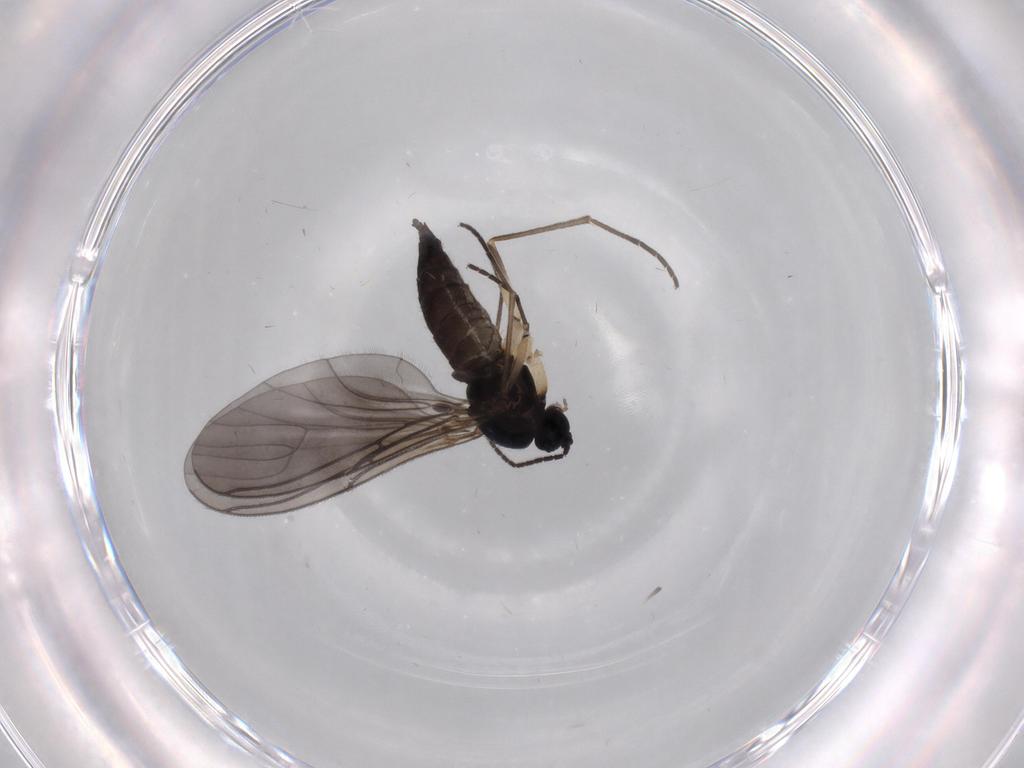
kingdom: Animalia
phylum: Arthropoda
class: Insecta
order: Diptera
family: Sciaridae
